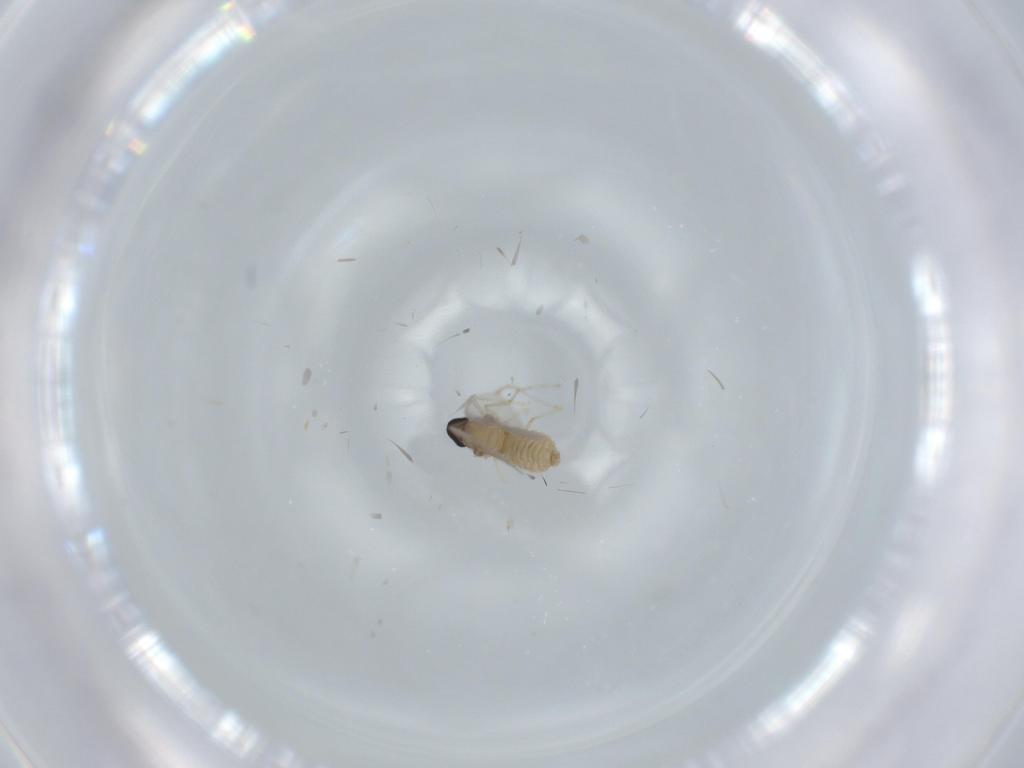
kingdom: Animalia
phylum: Arthropoda
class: Insecta
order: Diptera
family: Cecidomyiidae
